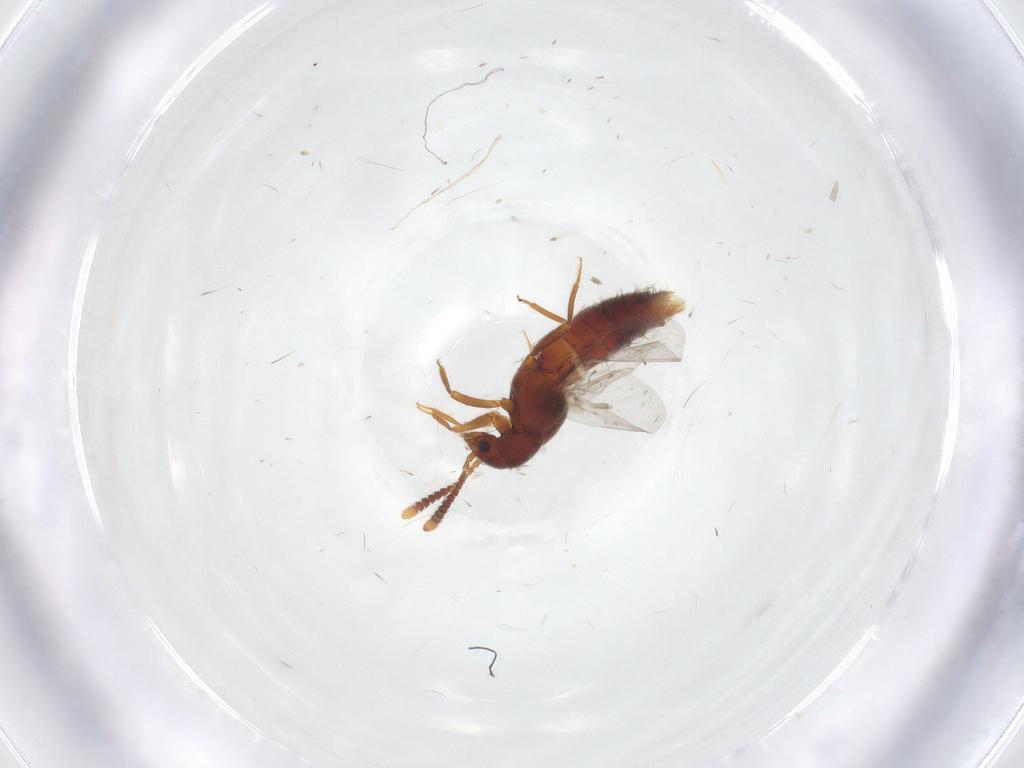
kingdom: Animalia
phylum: Arthropoda
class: Insecta
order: Coleoptera
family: Staphylinidae
